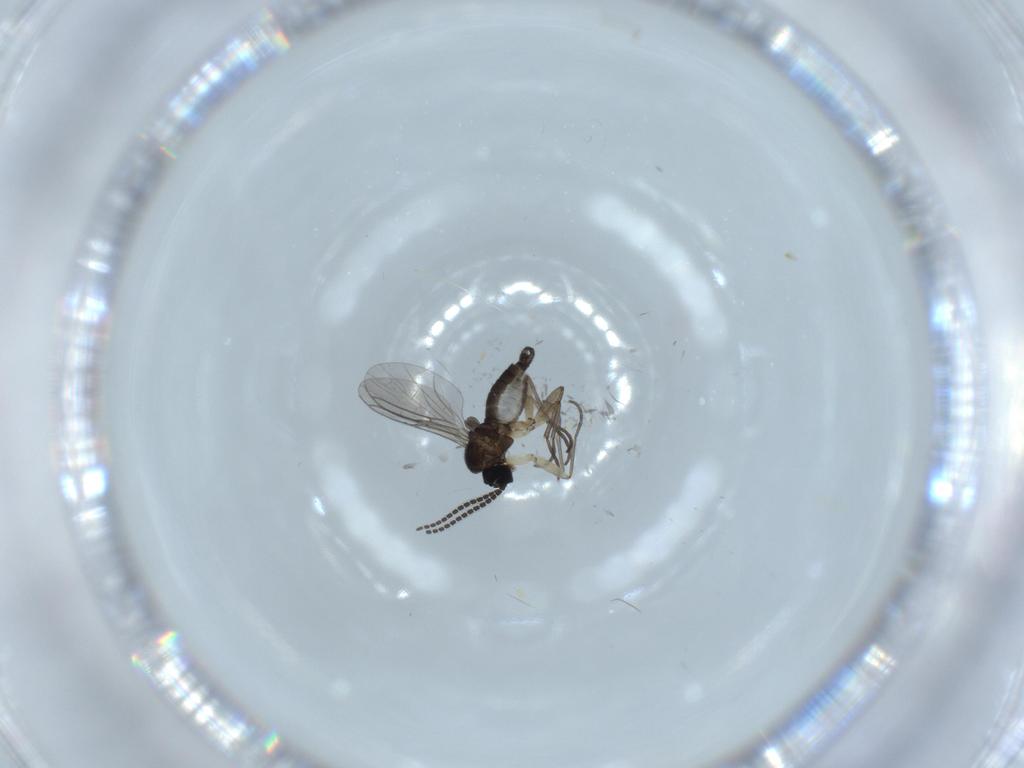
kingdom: Animalia
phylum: Arthropoda
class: Insecta
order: Diptera
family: Sciaridae
